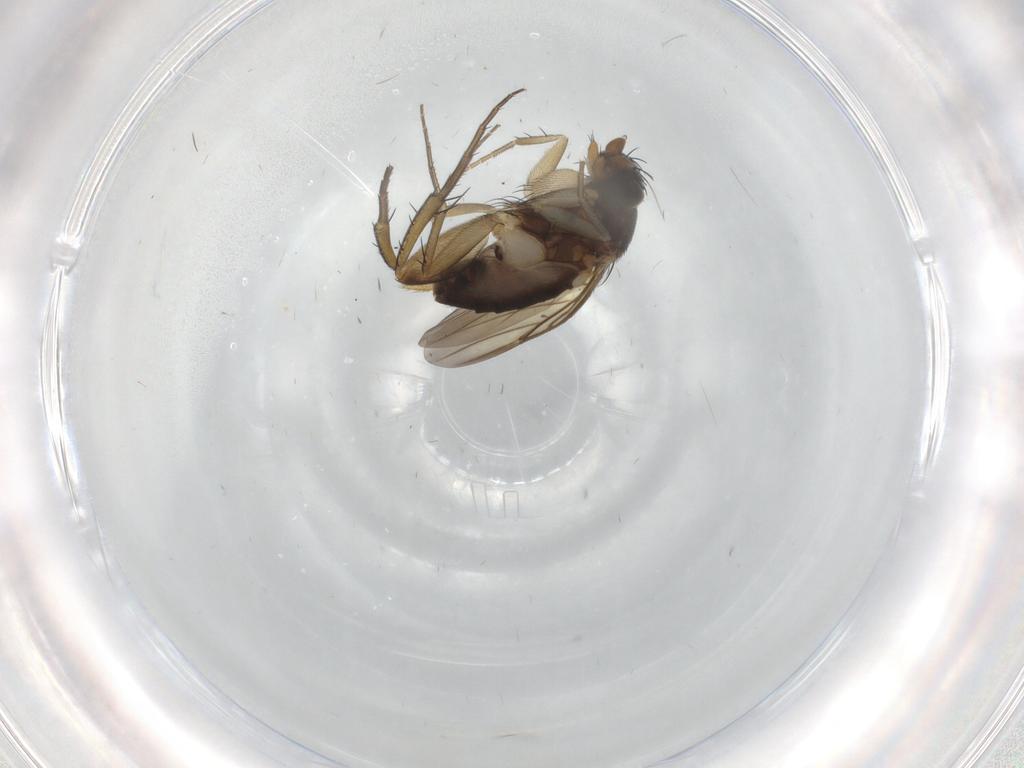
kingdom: Animalia
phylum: Arthropoda
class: Insecta
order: Diptera
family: Phoridae
